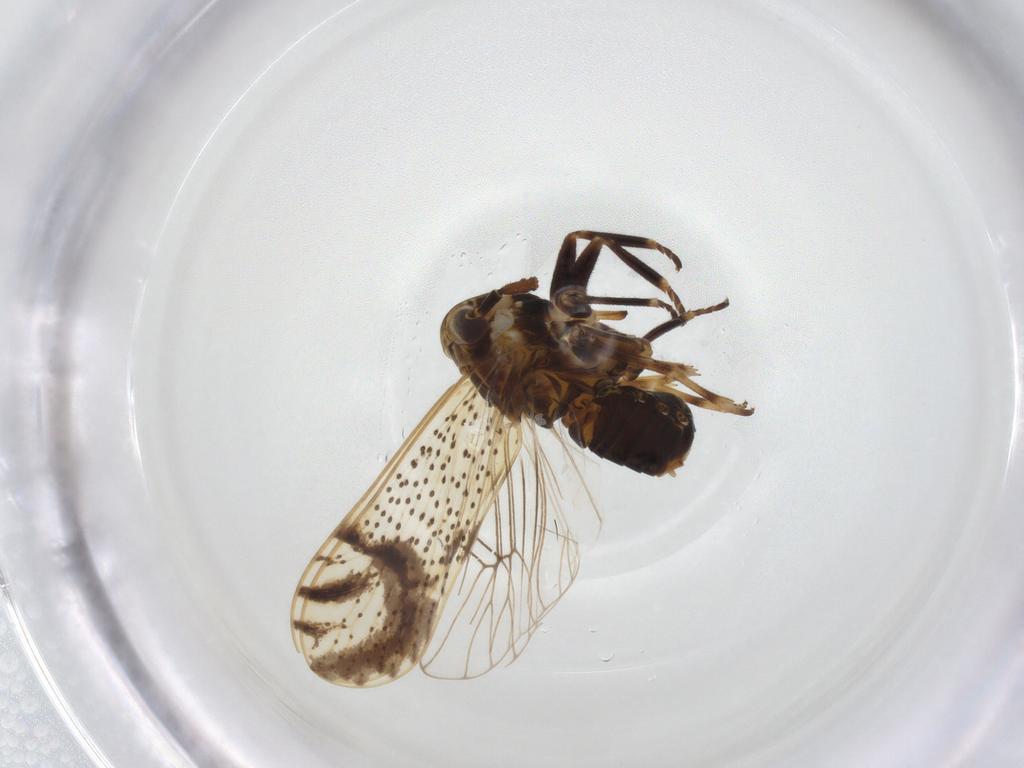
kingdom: Animalia
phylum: Arthropoda
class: Insecta
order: Hemiptera
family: Delphacidae
